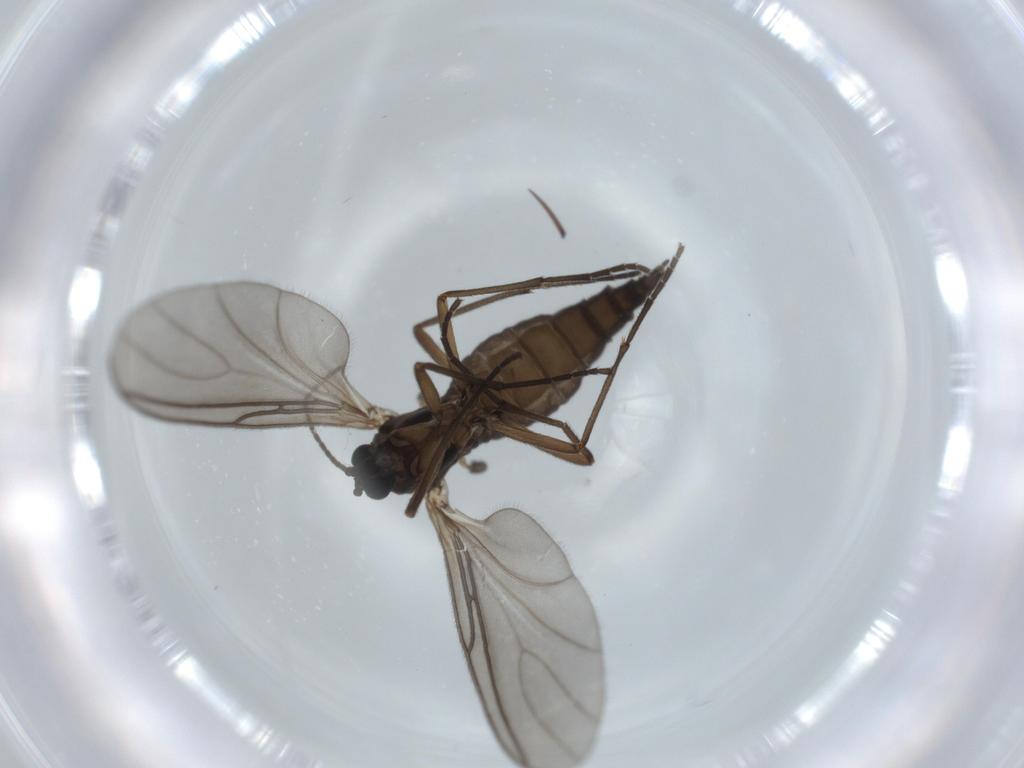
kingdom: Animalia
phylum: Arthropoda
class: Insecta
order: Diptera
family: Sciaridae
